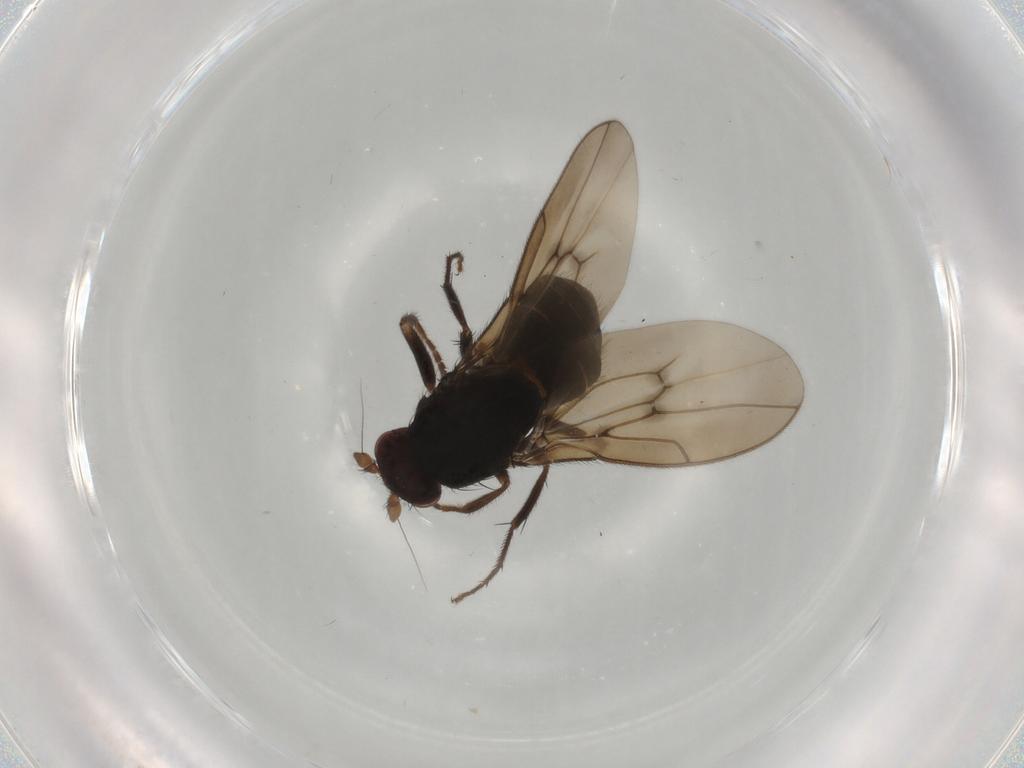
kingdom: Animalia
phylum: Arthropoda
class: Insecta
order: Diptera
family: Sphaeroceridae
